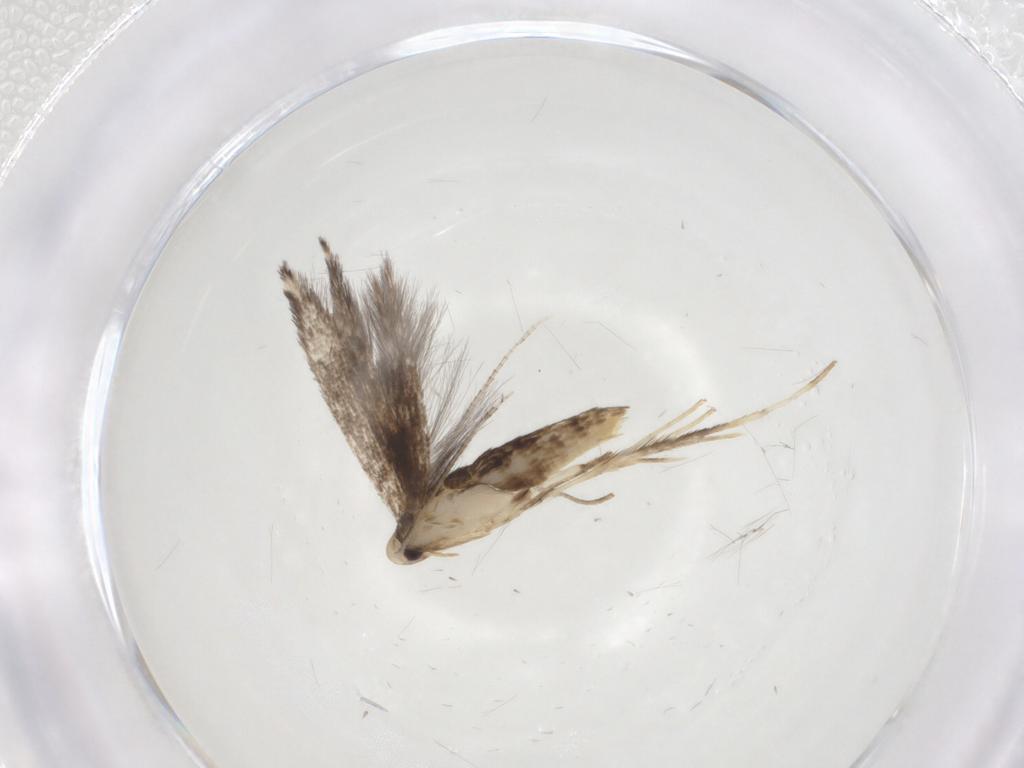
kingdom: Animalia
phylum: Arthropoda
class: Insecta
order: Lepidoptera
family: Gracillariidae
